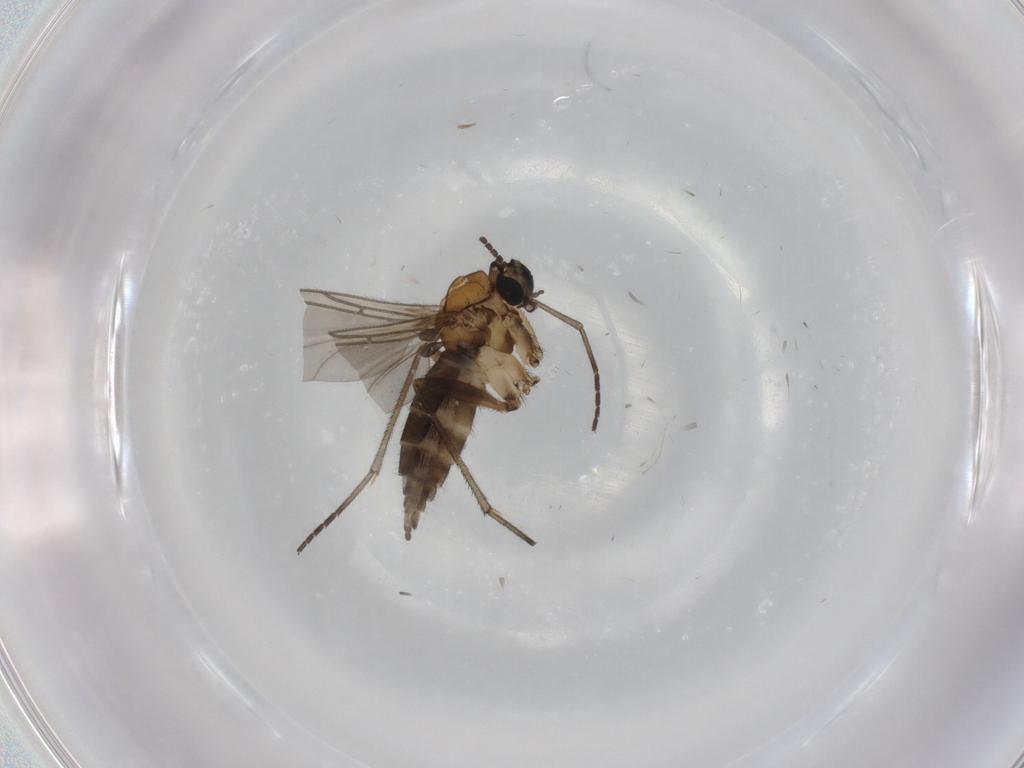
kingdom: Animalia
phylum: Arthropoda
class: Insecta
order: Diptera
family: Sciaridae
